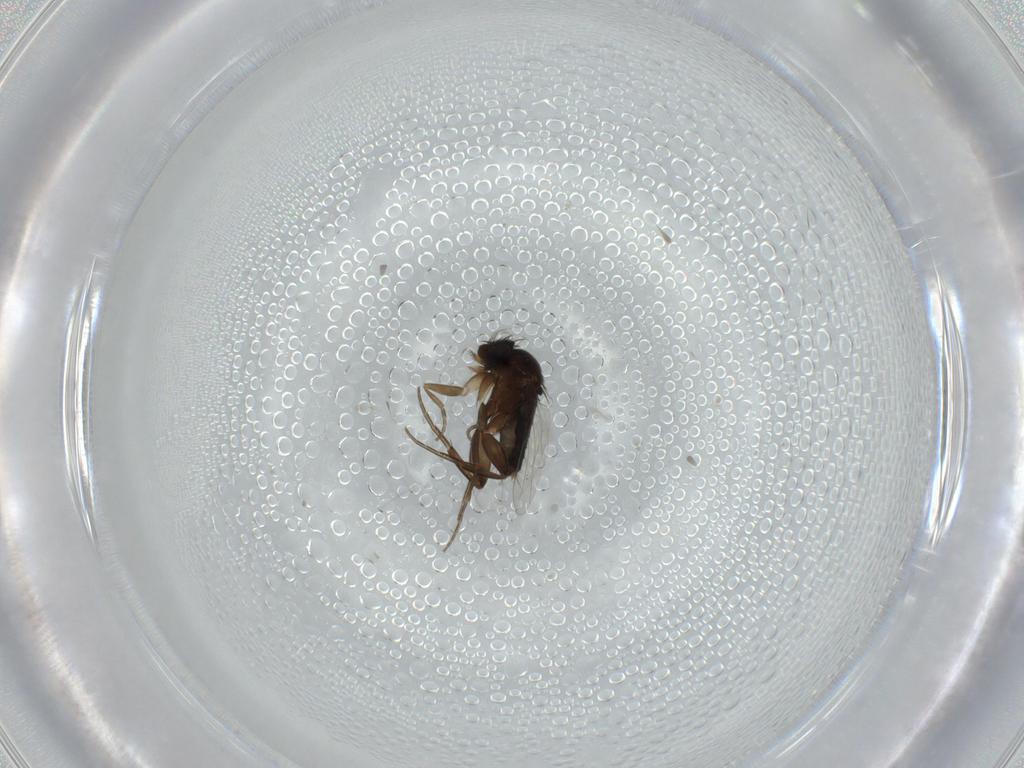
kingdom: Animalia
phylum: Arthropoda
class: Insecta
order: Diptera
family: Phoridae
